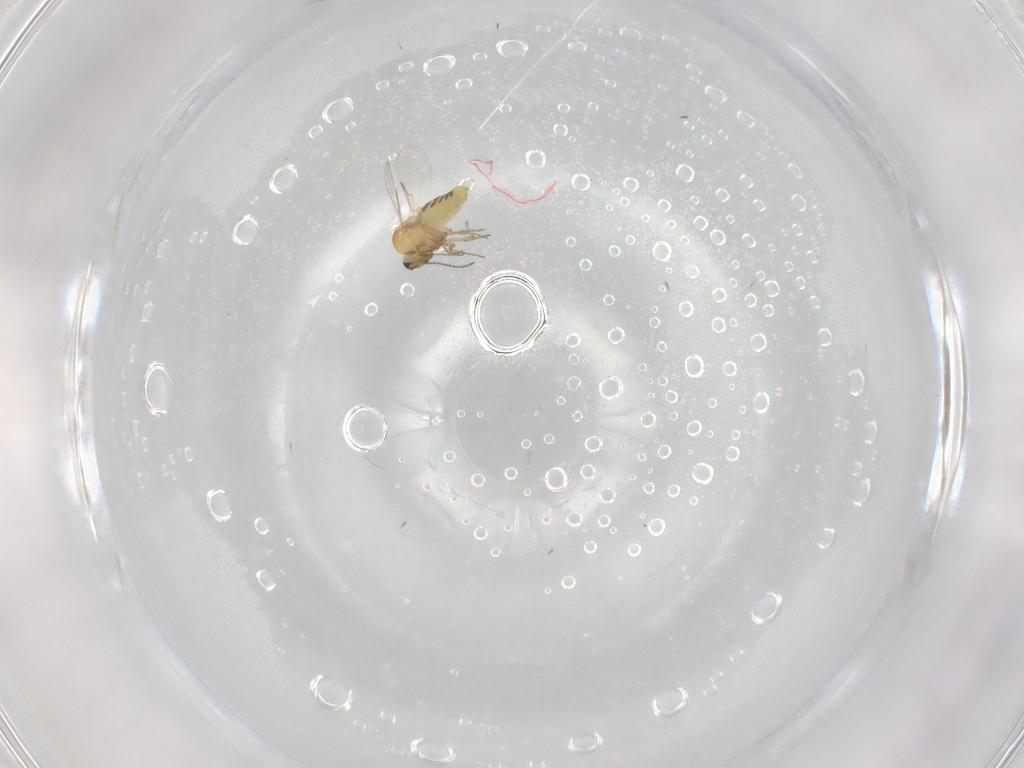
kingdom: Animalia
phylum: Arthropoda
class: Insecta
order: Diptera
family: Ceratopogonidae
